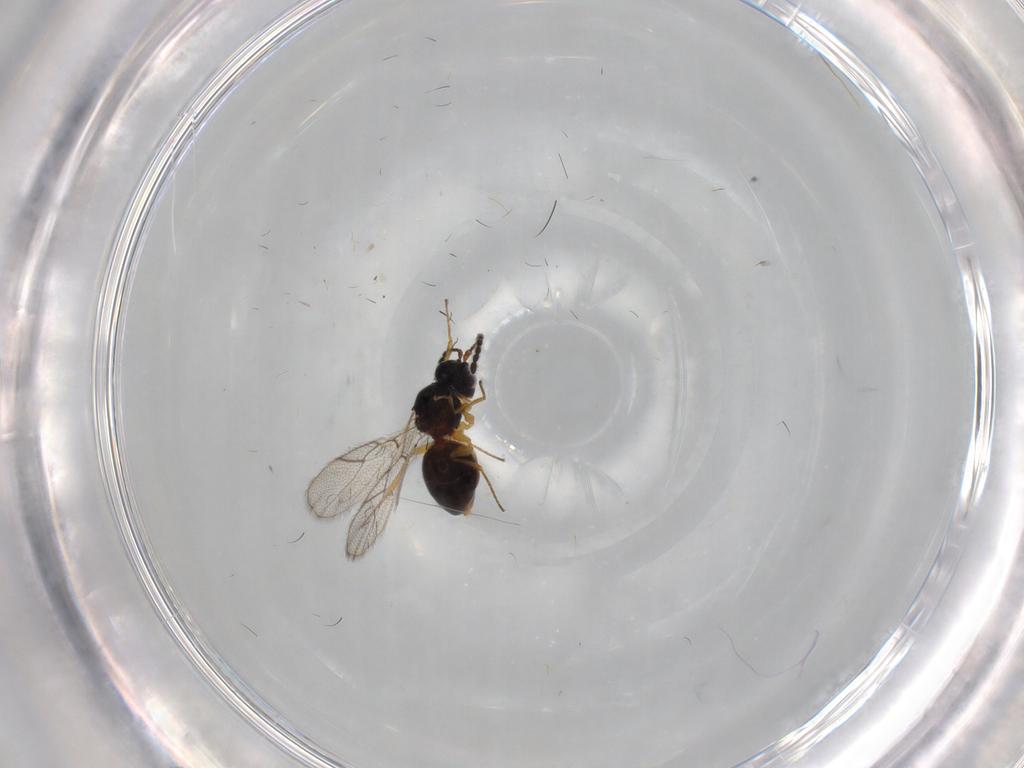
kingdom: Animalia
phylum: Arthropoda
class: Insecta
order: Hymenoptera
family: Figitidae
